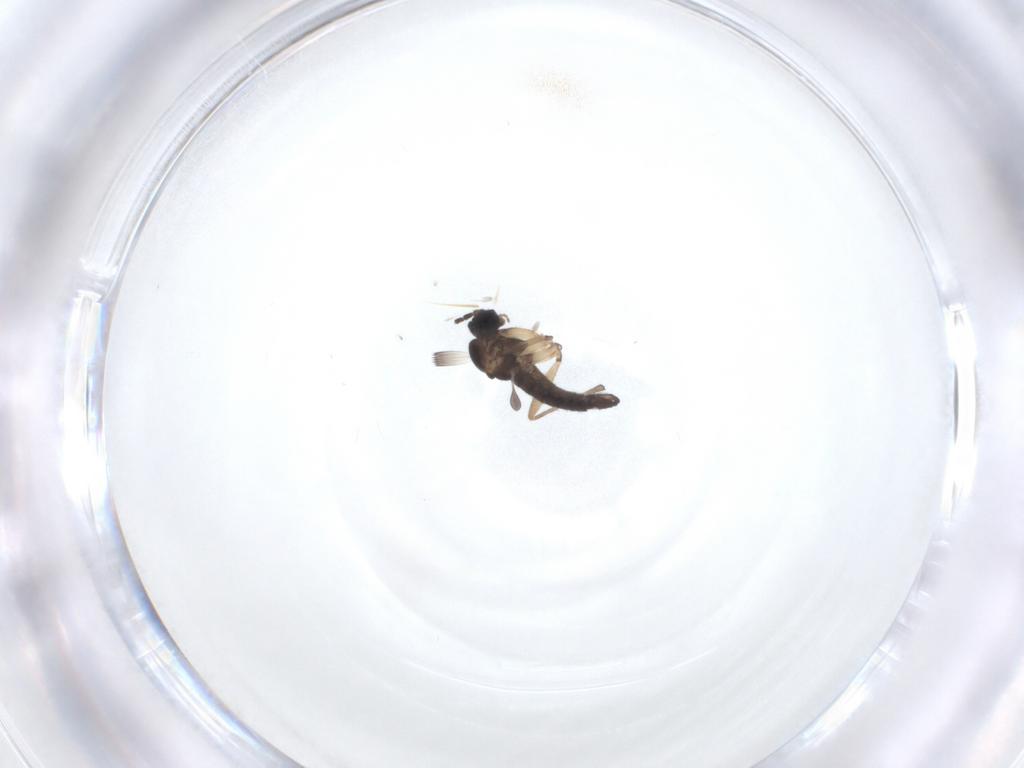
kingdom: Animalia
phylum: Arthropoda
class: Insecta
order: Diptera
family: Sciaridae
